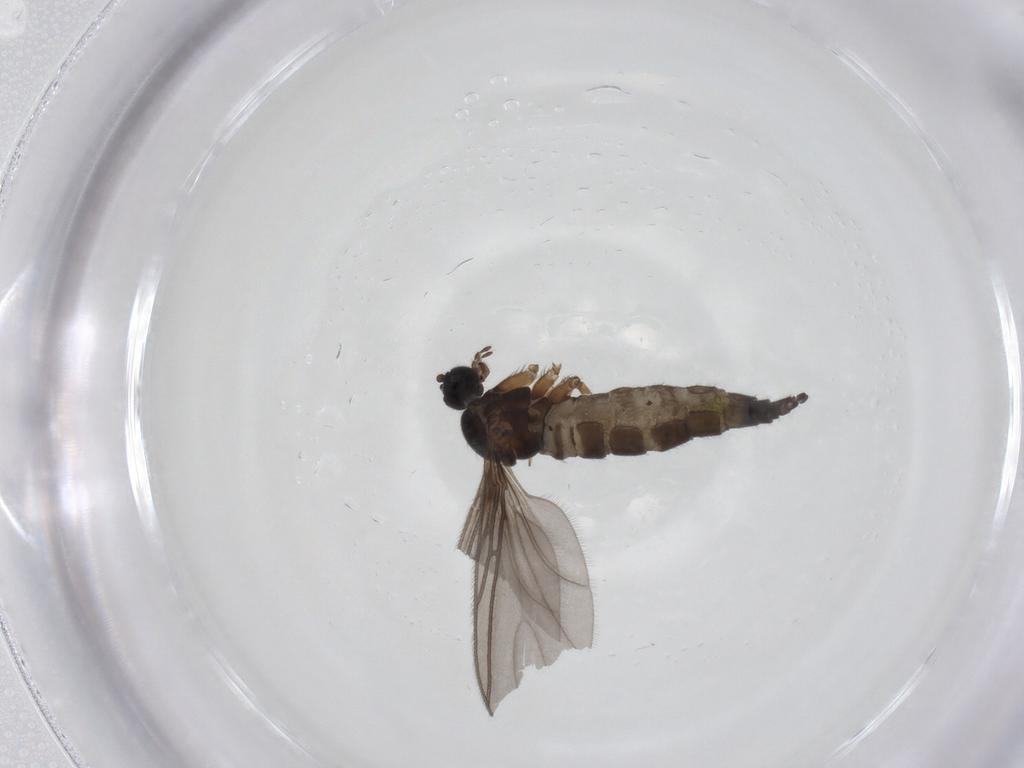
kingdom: Animalia
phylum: Arthropoda
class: Insecta
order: Diptera
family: Sciaridae
